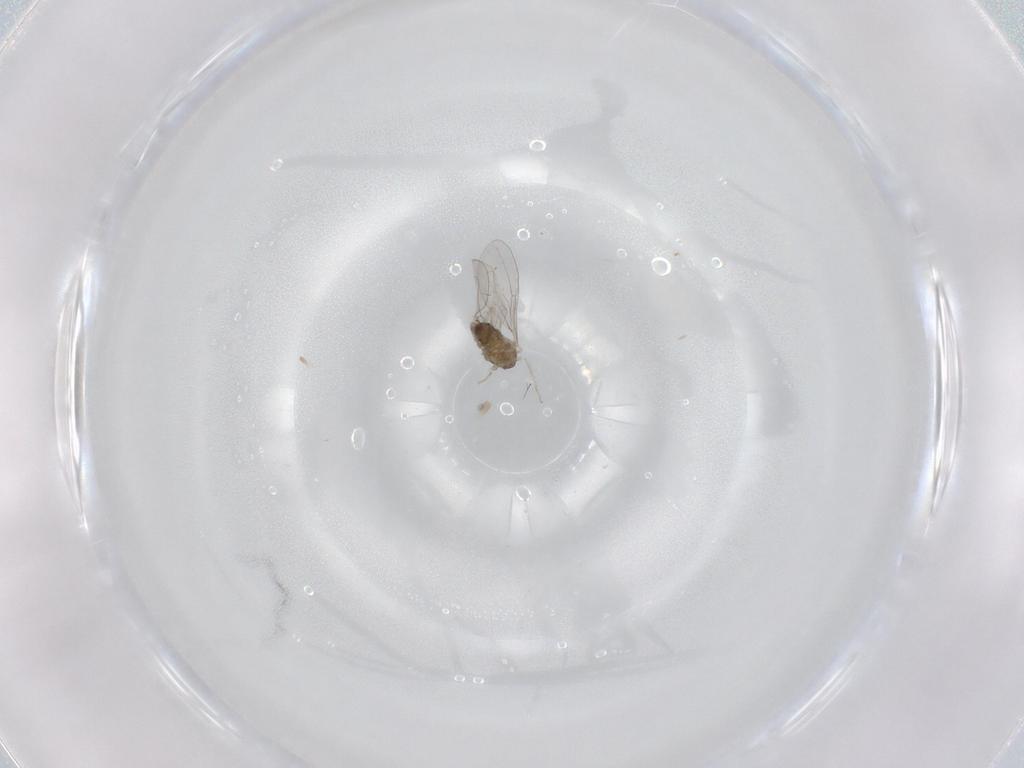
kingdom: Animalia
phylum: Arthropoda
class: Insecta
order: Diptera
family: Cecidomyiidae
